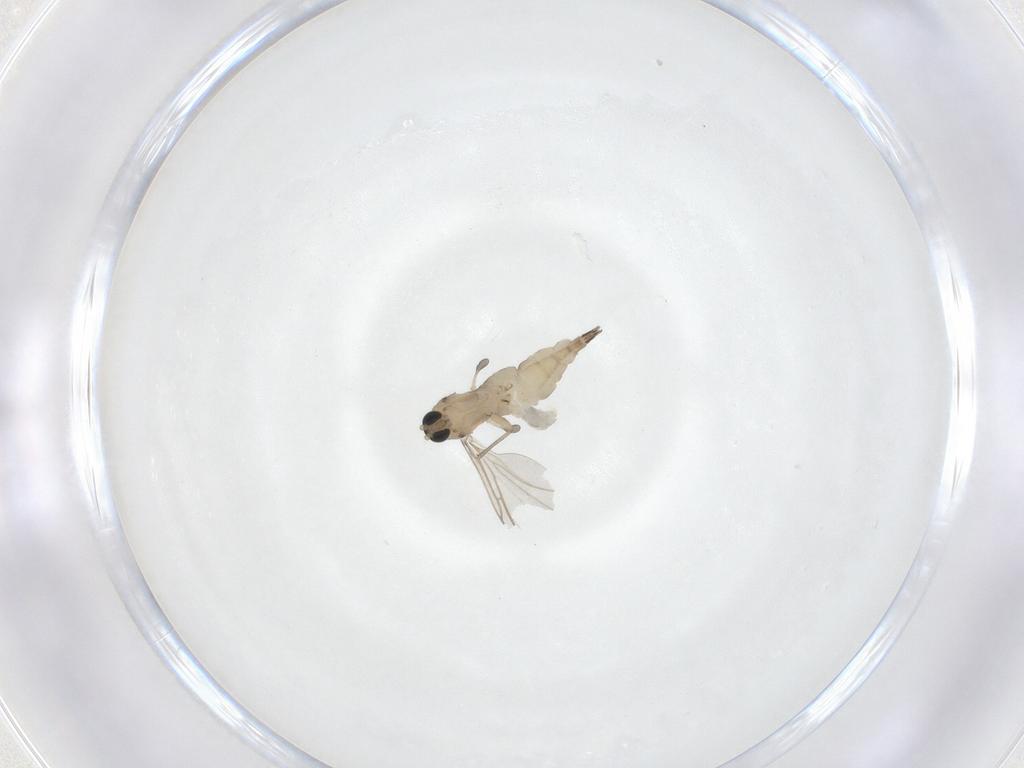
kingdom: Animalia
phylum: Arthropoda
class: Insecta
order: Diptera
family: Sciaridae
